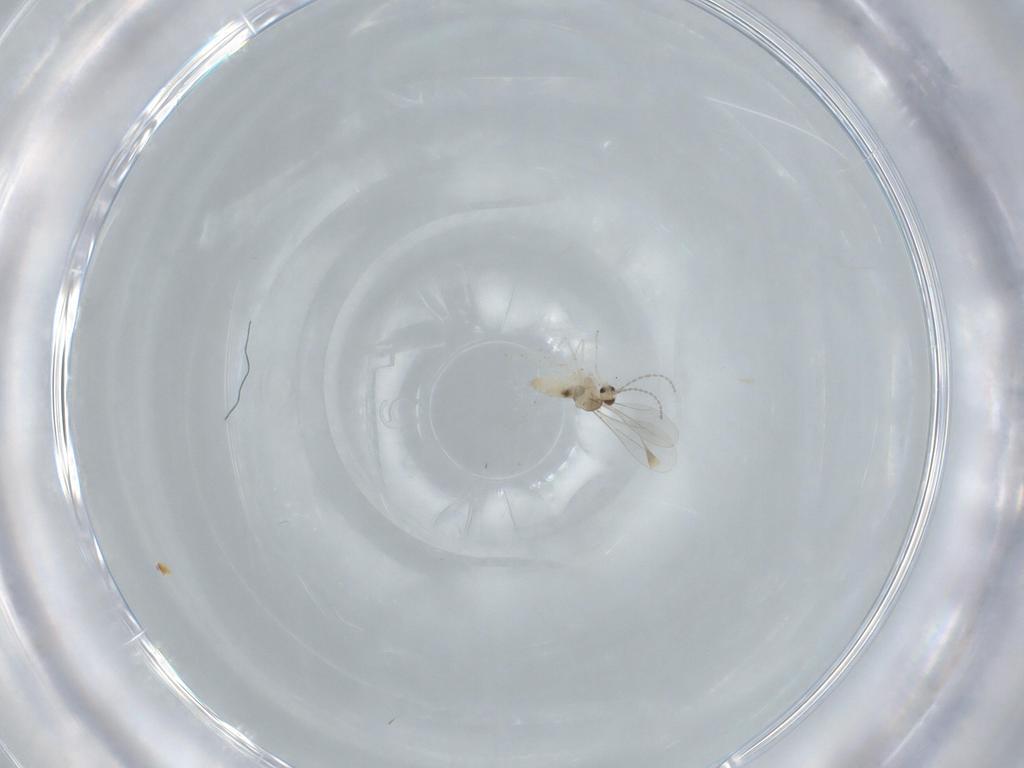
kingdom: Animalia
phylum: Arthropoda
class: Insecta
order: Diptera
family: Cecidomyiidae
